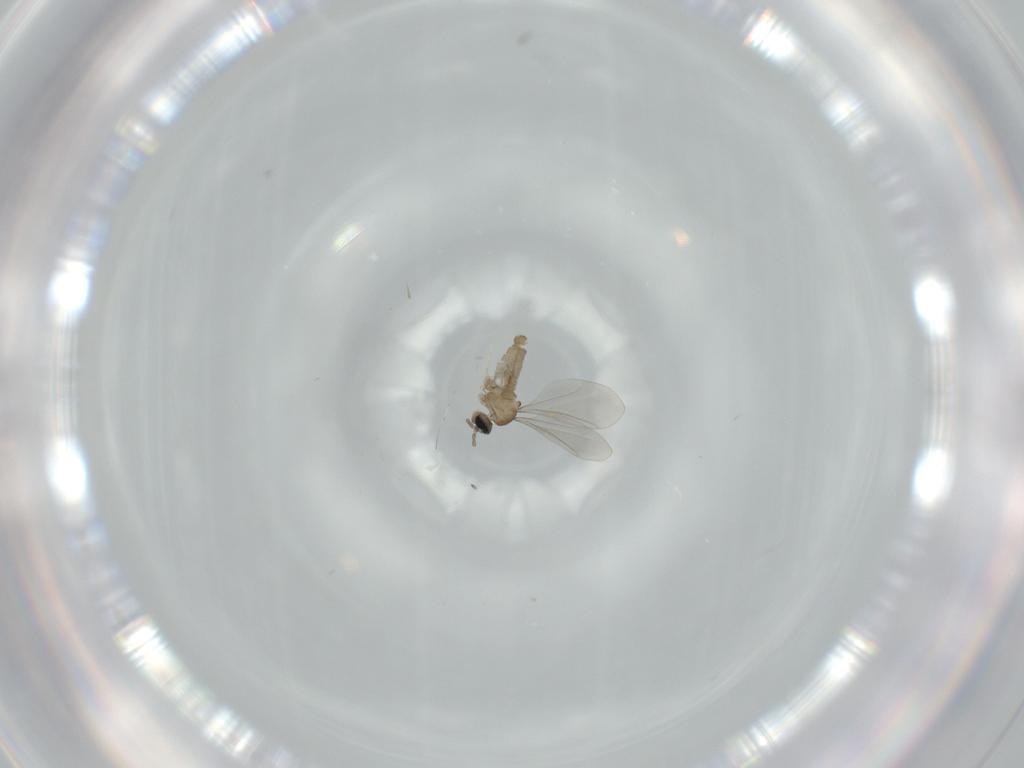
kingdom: Animalia
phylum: Arthropoda
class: Insecta
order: Diptera
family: Cecidomyiidae
